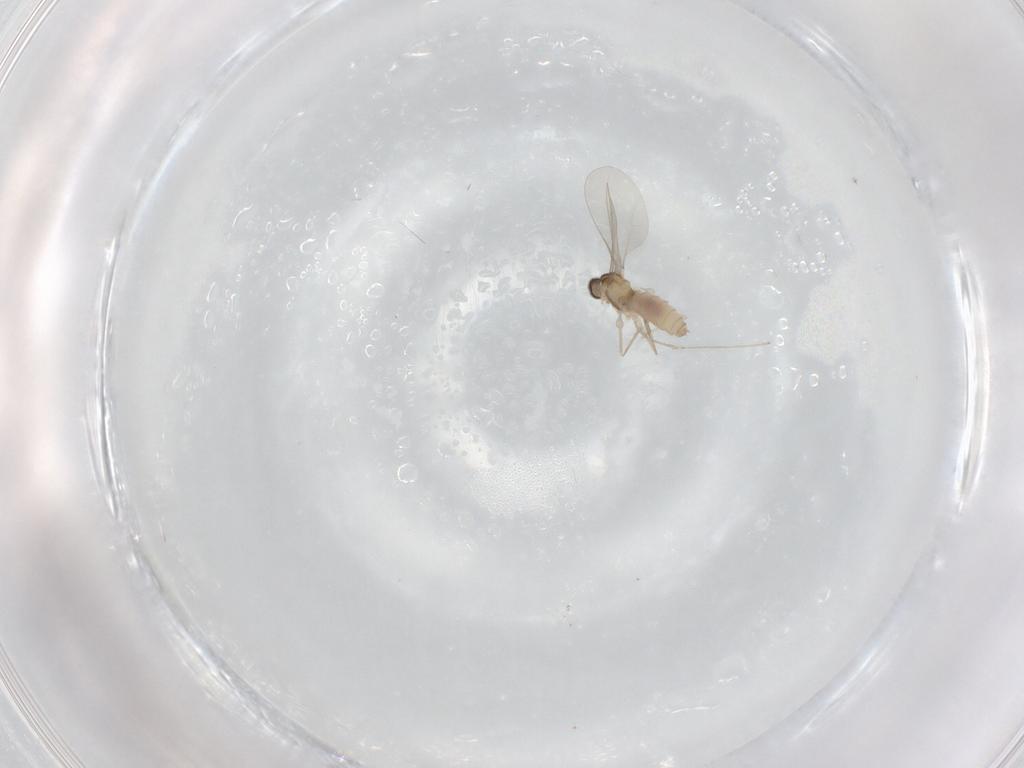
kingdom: Animalia
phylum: Arthropoda
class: Insecta
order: Diptera
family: Cecidomyiidae
